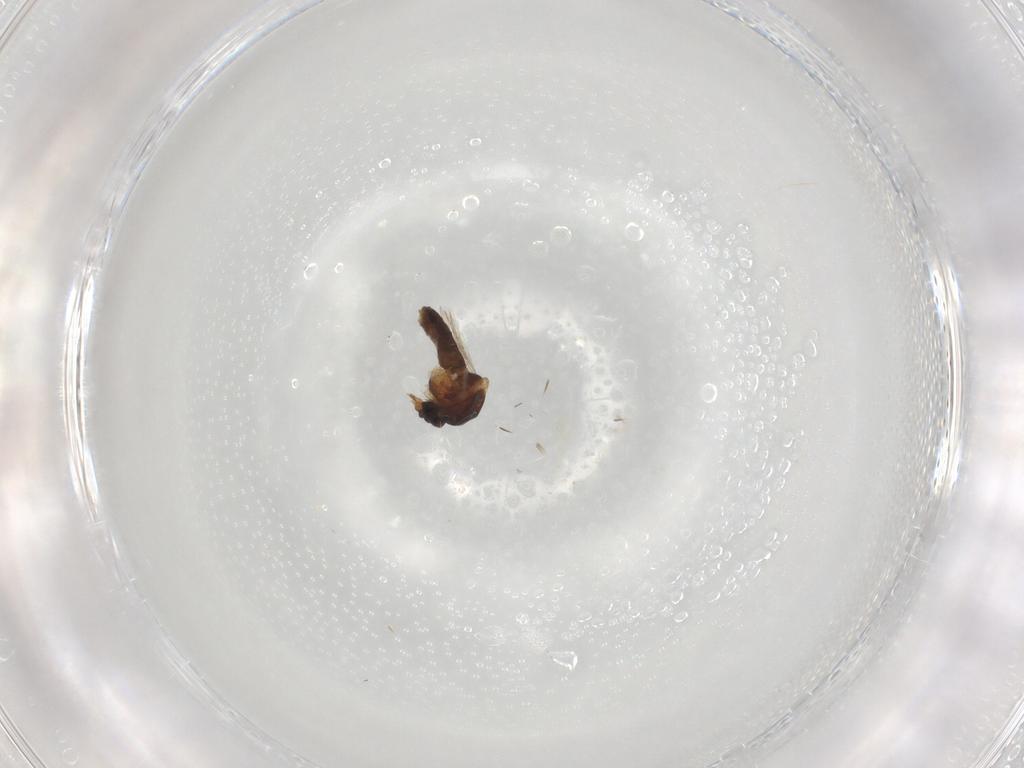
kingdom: Animalia
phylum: Arthropoda
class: Insecta
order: Diptera
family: Ceratopogonidae
